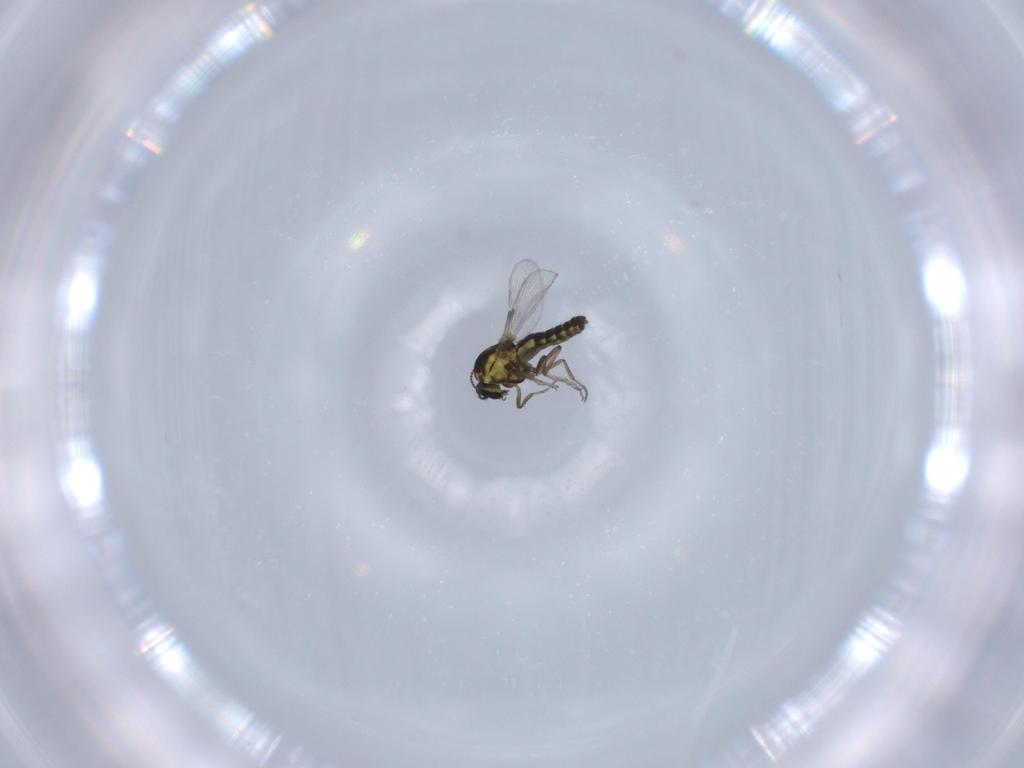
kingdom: Animalia
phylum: Arthropoda
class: Insecta
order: Diptera
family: Ceratopogonidae
